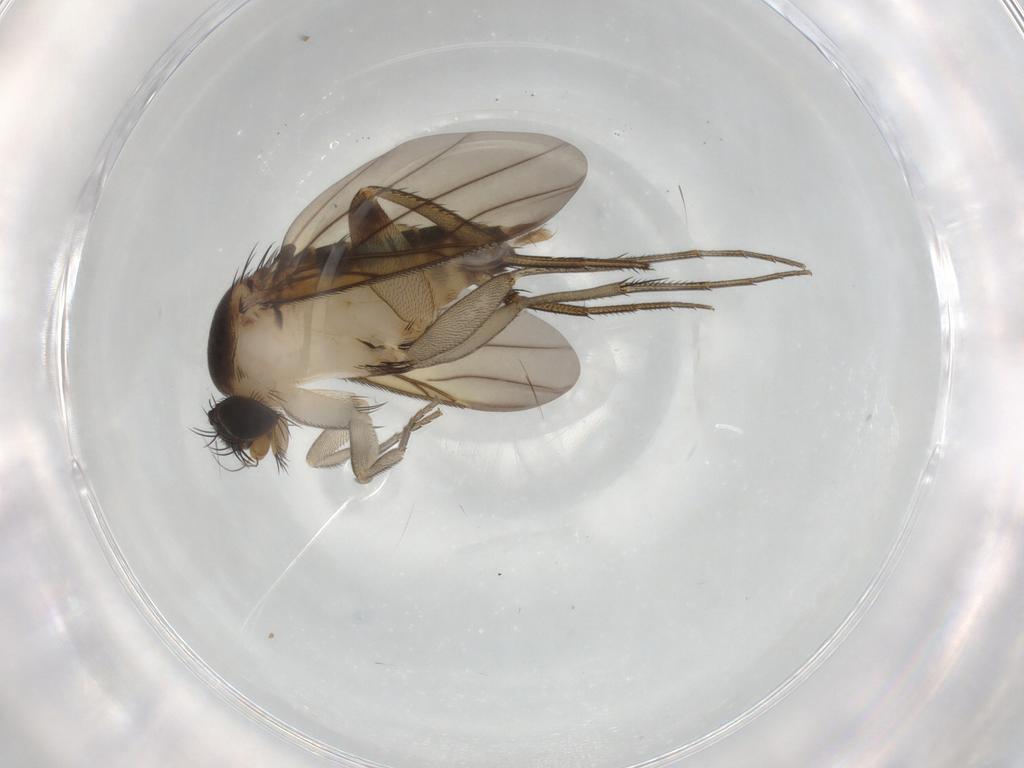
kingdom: Animalia
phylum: Arthropoda
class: Insecta
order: Diptera
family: Phoridae
